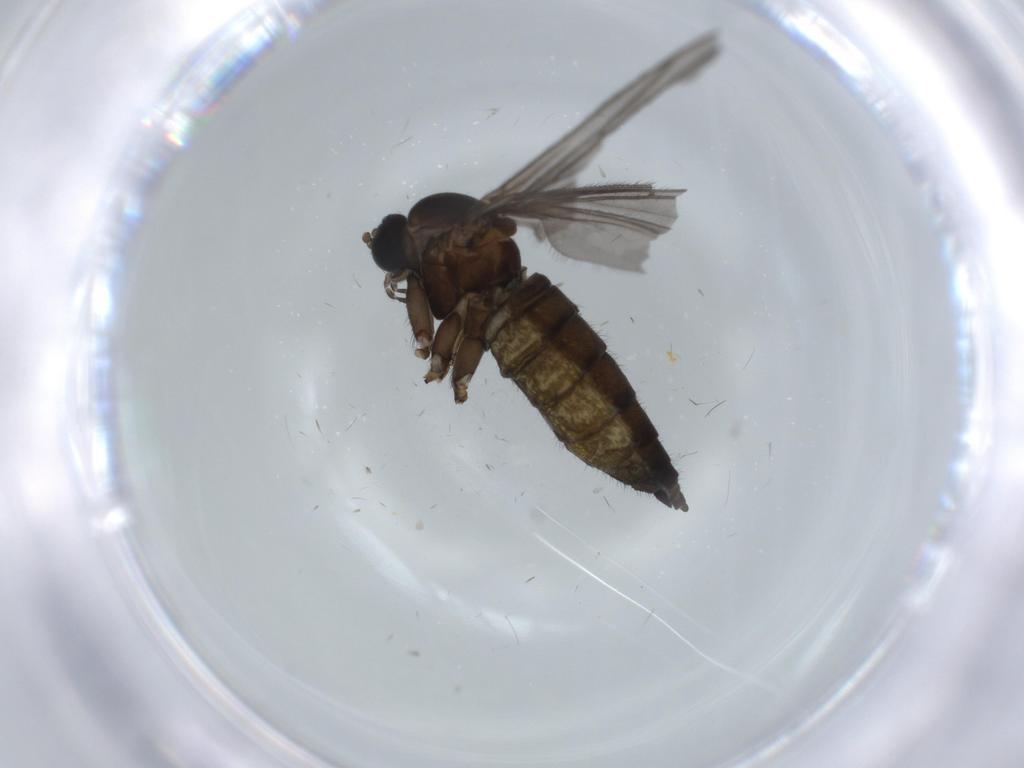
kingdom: Animalia
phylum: Arthropoda
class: Insecta
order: Diptera
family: Sciaridae
